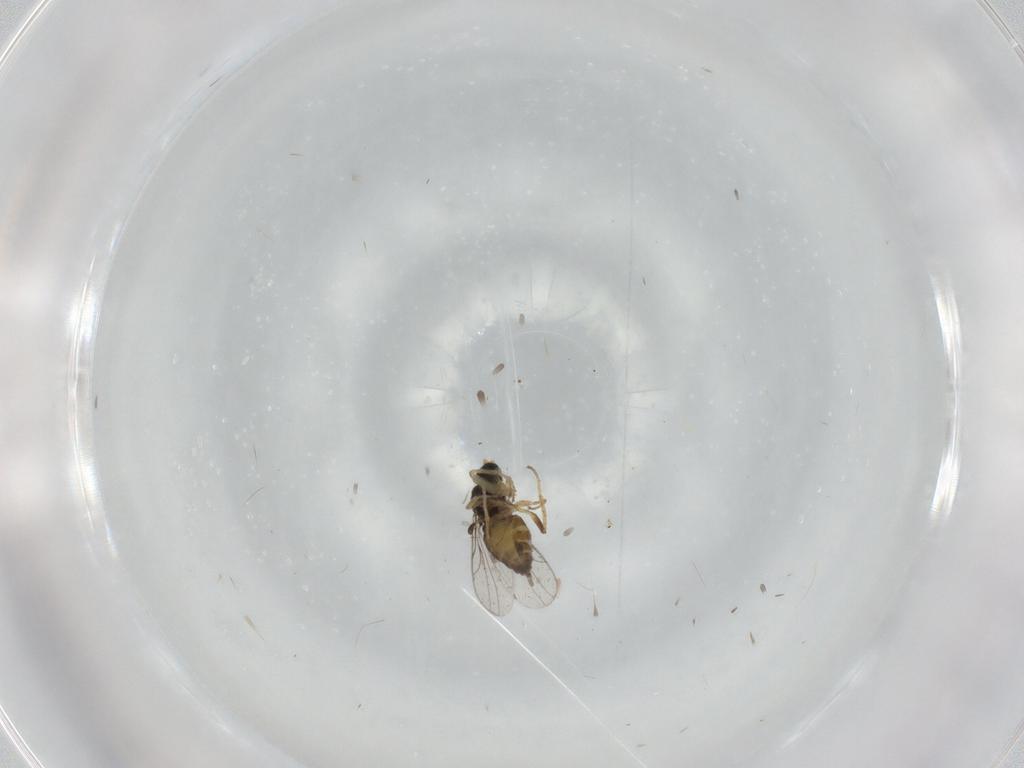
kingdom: Animalia
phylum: Arthropoda
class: Insecta
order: Diptera
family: Hybotidae
